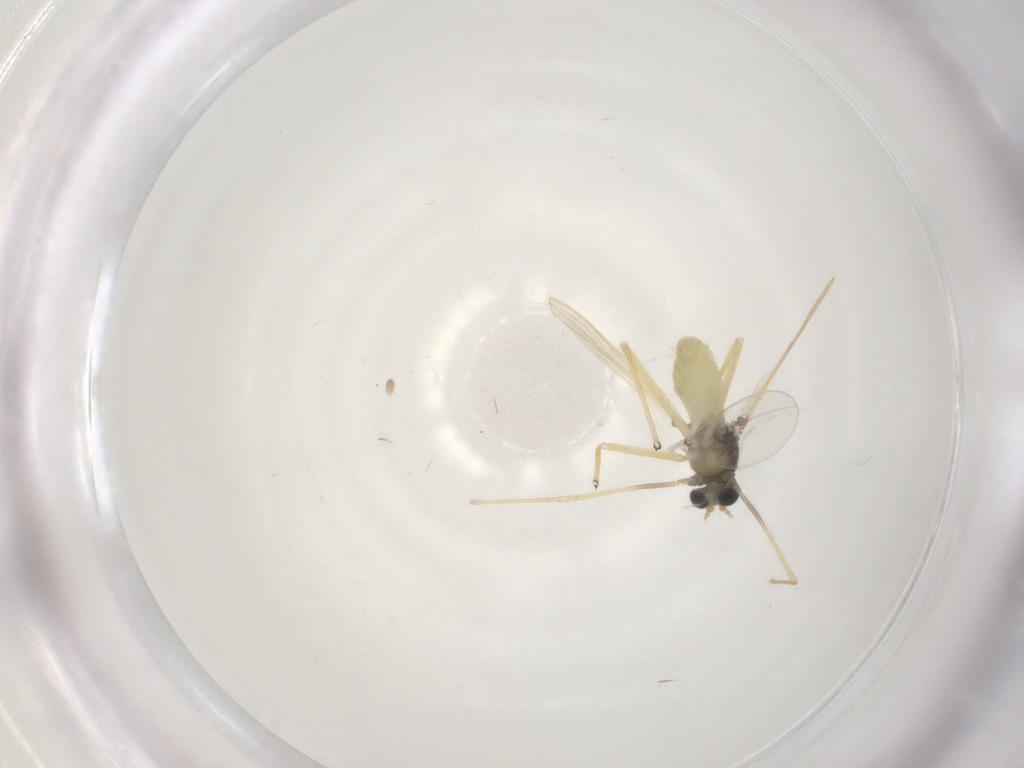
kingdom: Animalia
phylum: Arthropoda
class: Insecta
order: Diptera
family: Chironomidae
